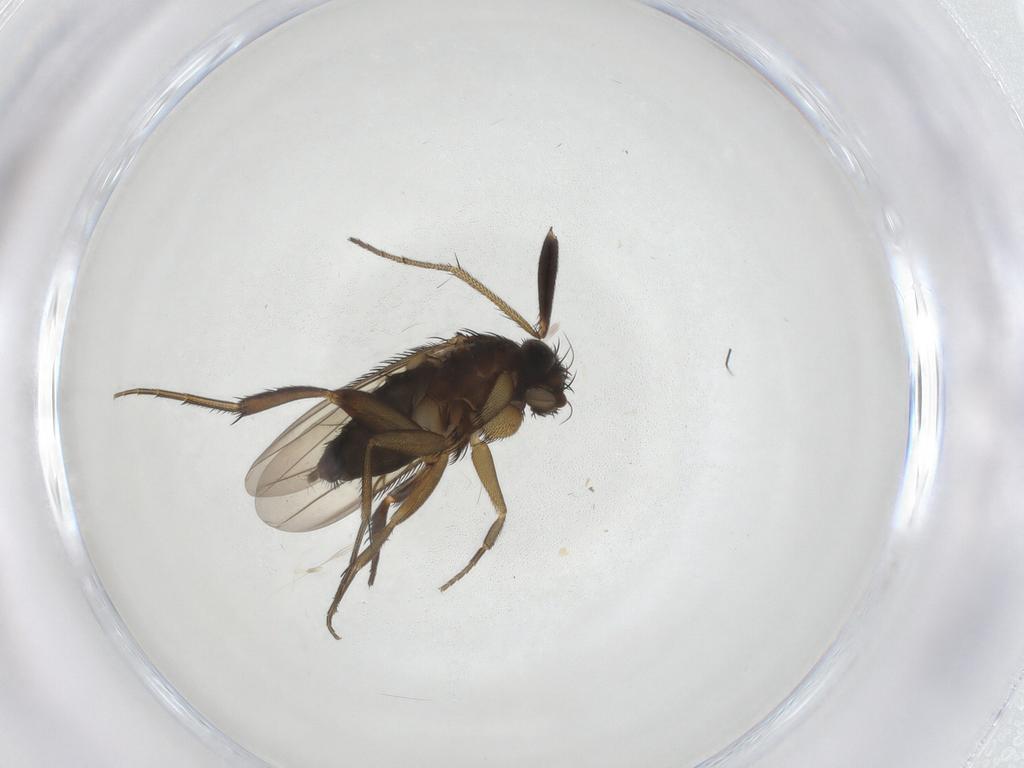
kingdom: Animalia
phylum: Arthropoda
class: Insecta
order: Diptera
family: Phoridae
